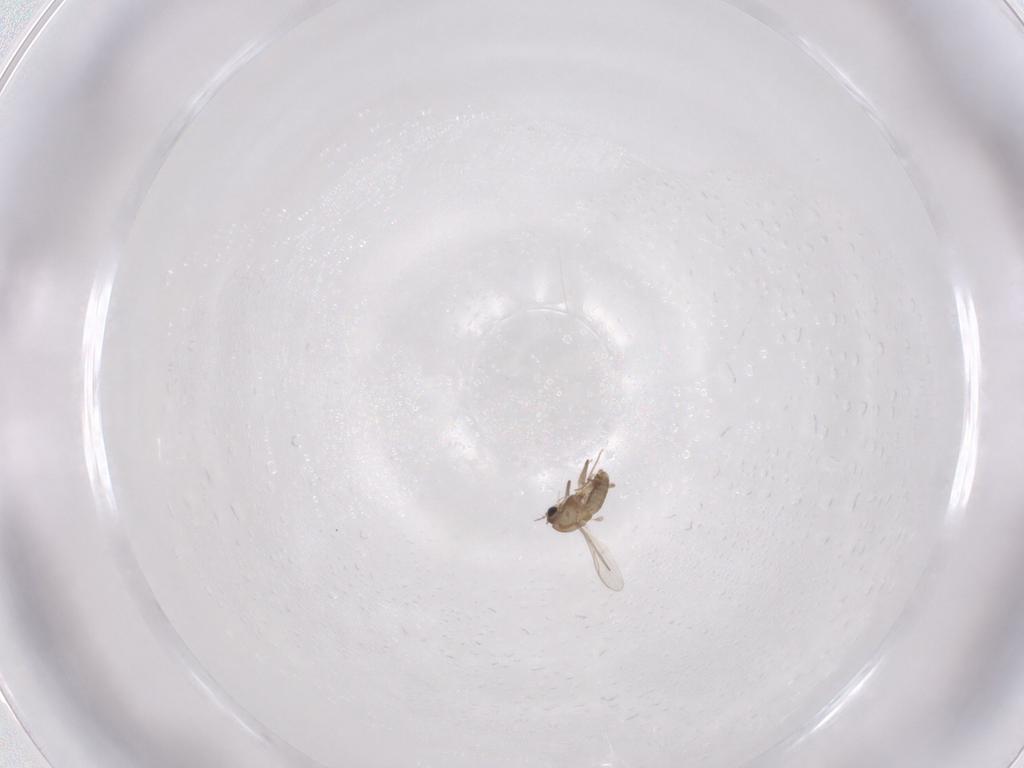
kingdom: Animalia
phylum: Arthropoda
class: Insecta
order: Diptera
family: Chironomidae
